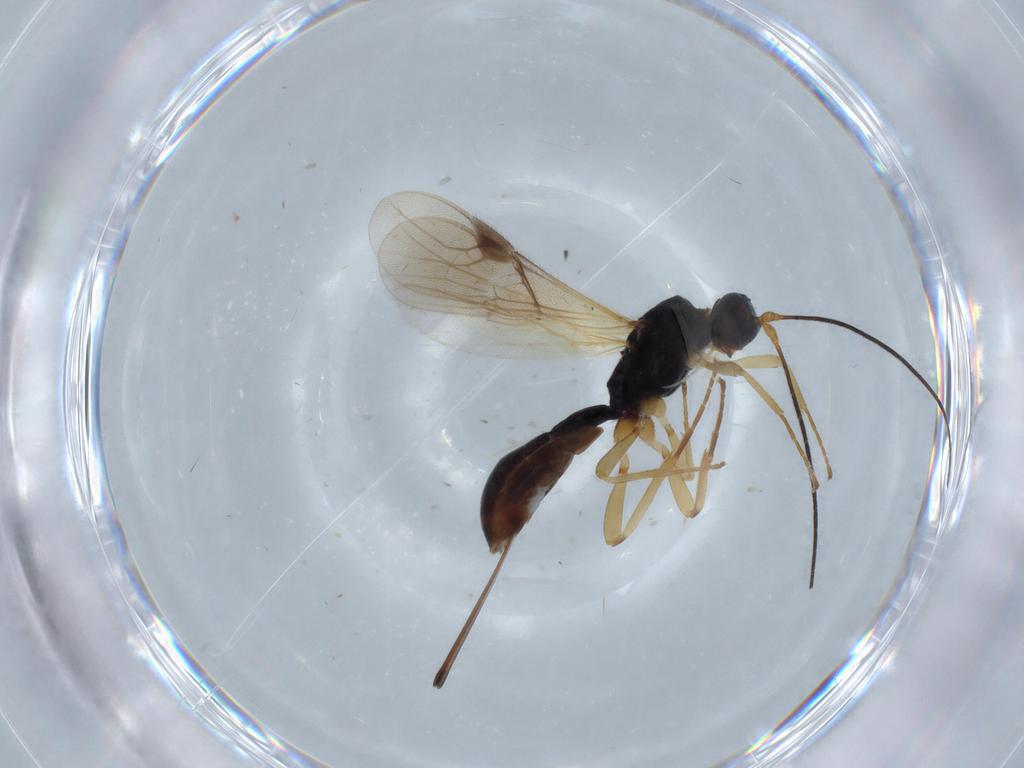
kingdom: Animalia
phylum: Arthropoda
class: Insecta
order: Hymenoptera
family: Braconidae
